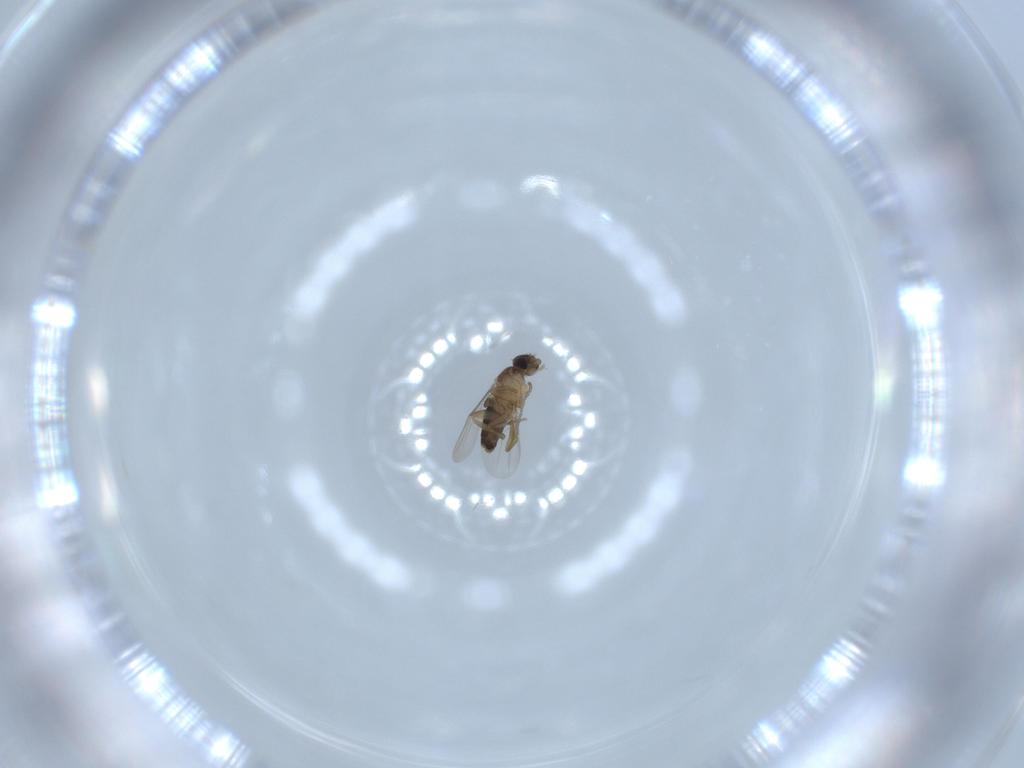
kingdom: Animalia
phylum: Arthropoda
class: Insecta
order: Diptera
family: Phoridae
